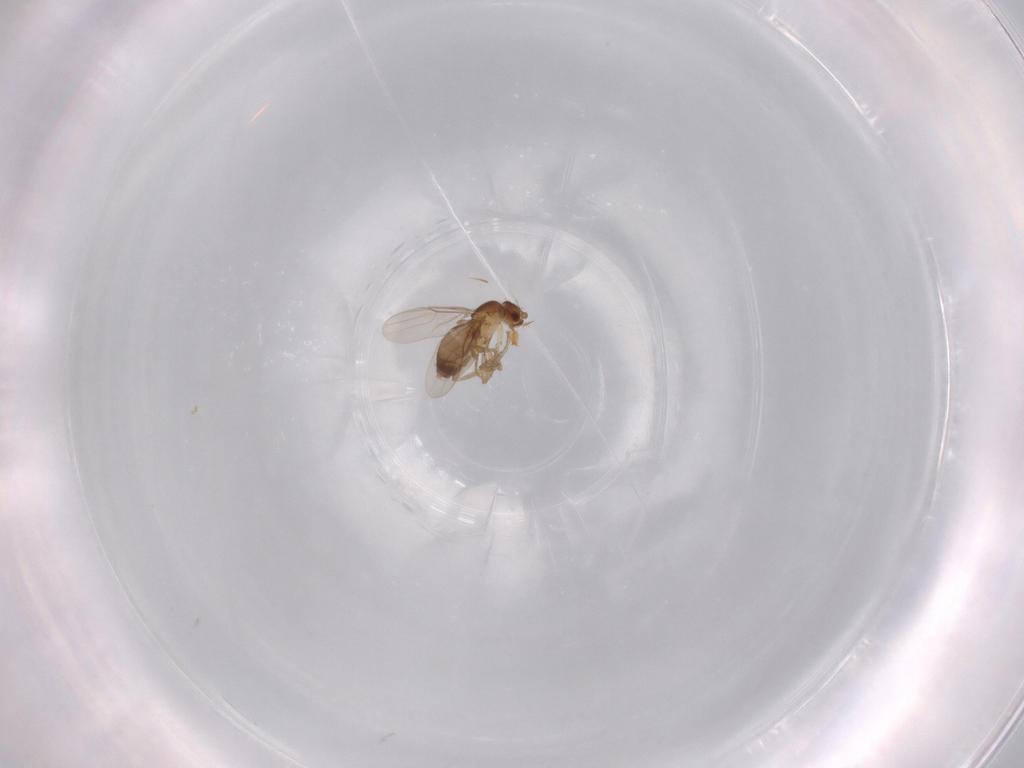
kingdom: Animalia
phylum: Arthropoda
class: Insecta
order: Diptera
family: Phoridae
